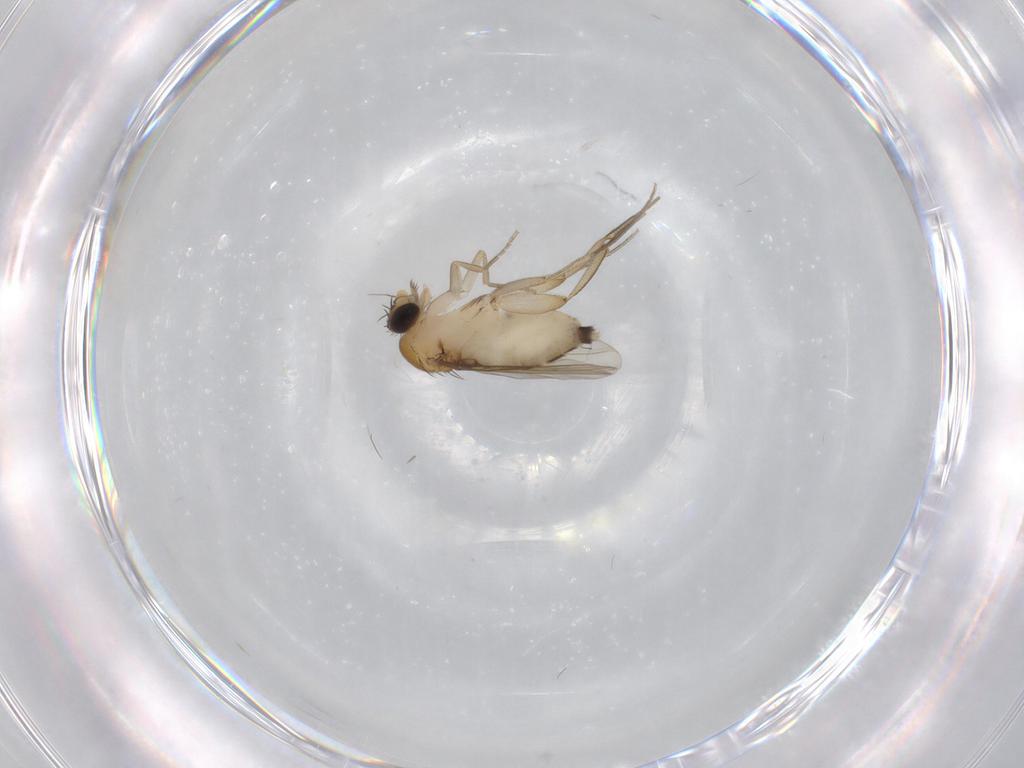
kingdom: Animalia
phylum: Arthropoda
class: Insecta
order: Diptera
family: Phoridae
